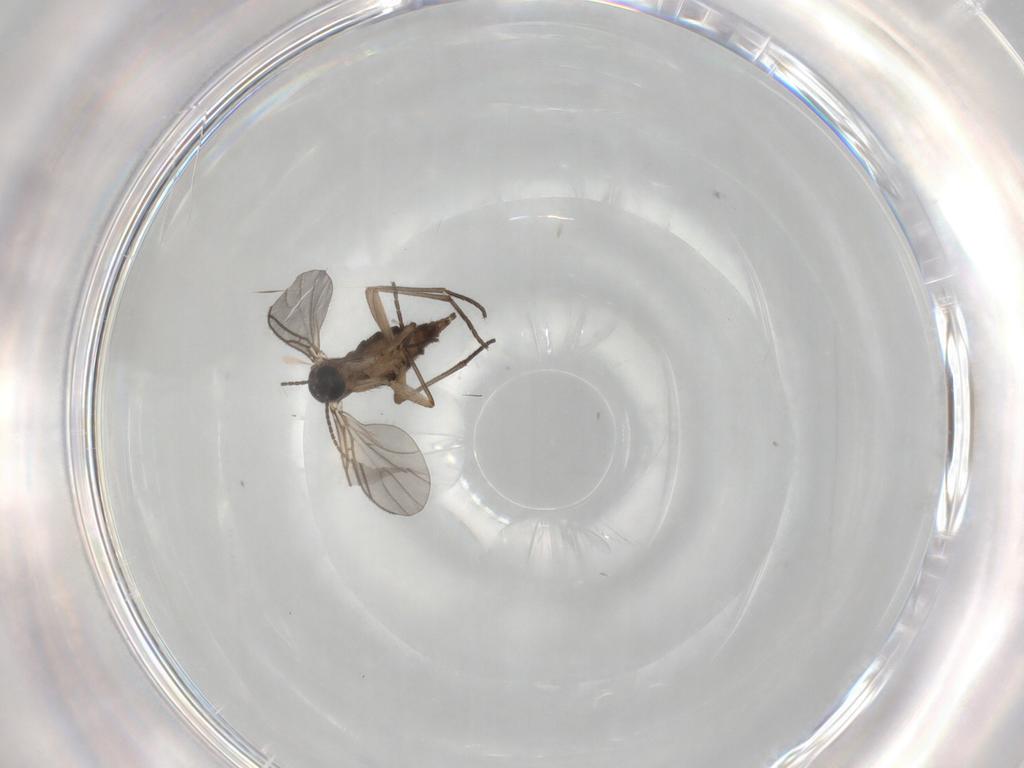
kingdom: Animalia
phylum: Arthropoda
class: Insecta
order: Diptera
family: Sciaridae
